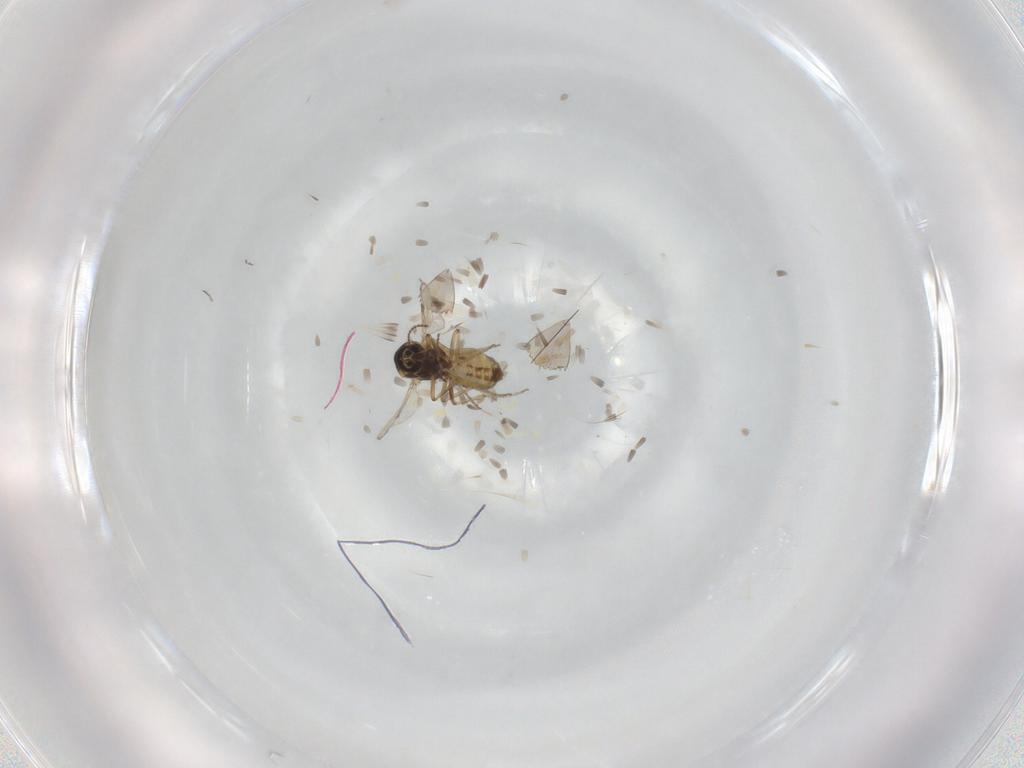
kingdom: Animalia
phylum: Arthropoda
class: Insecta
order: Diptera
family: Ceratopogonidae
